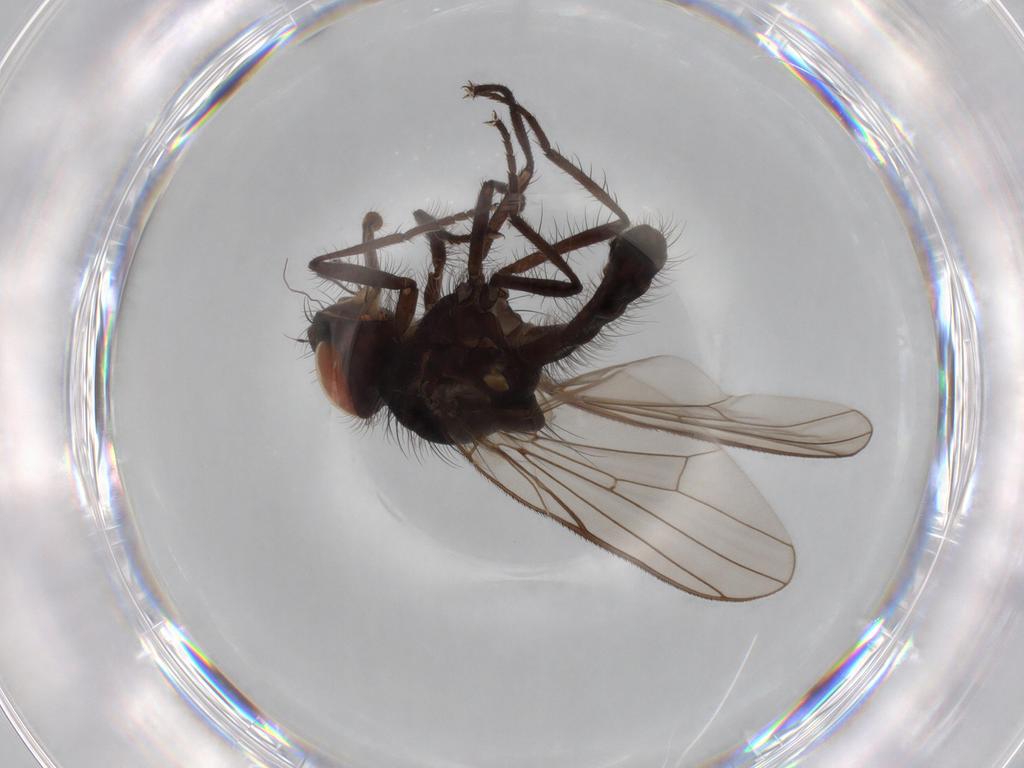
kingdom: Animalia
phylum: Arthropoda
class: Insecta
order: Diptera
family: Anthomyiidae
